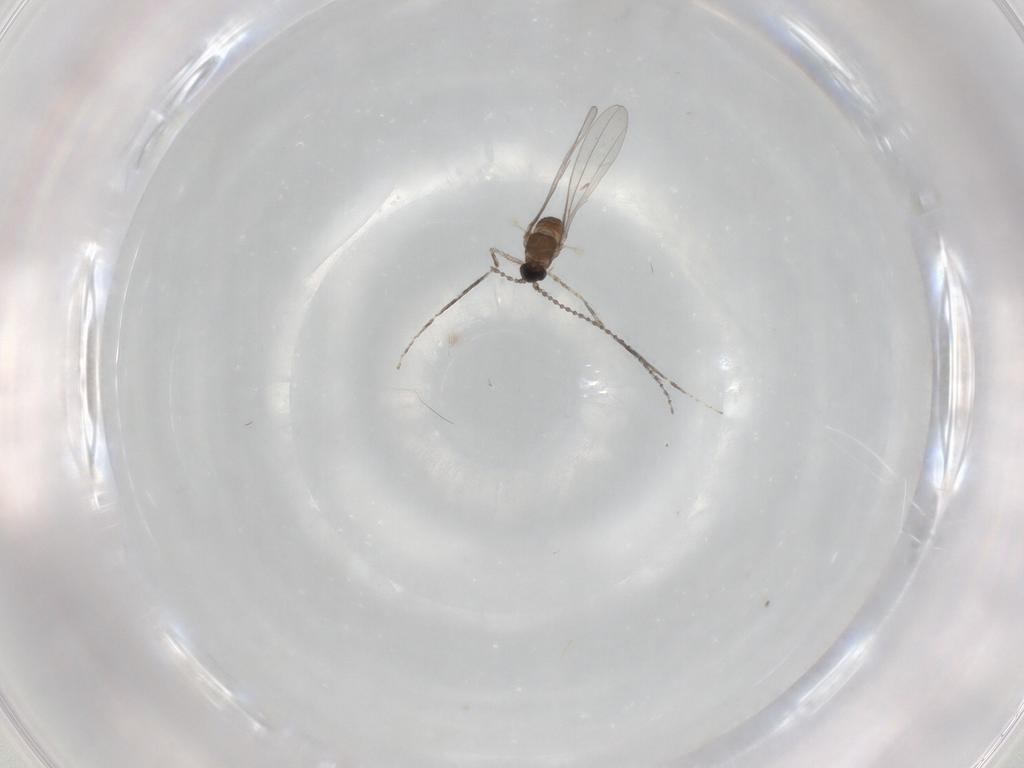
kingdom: Animalia
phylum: Arthropoda
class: Insecta
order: Diptera
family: Cecidomyiidae
